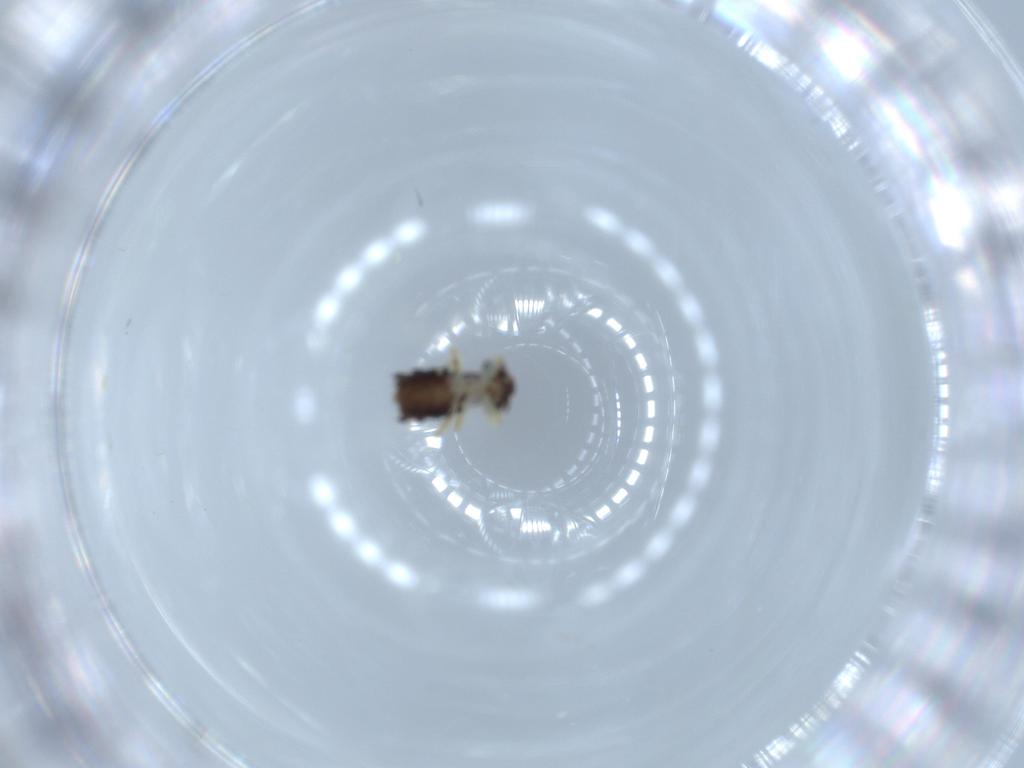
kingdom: Animalia
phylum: Arthropoda
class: Insecta
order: Psocodea
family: Psoquillidae
